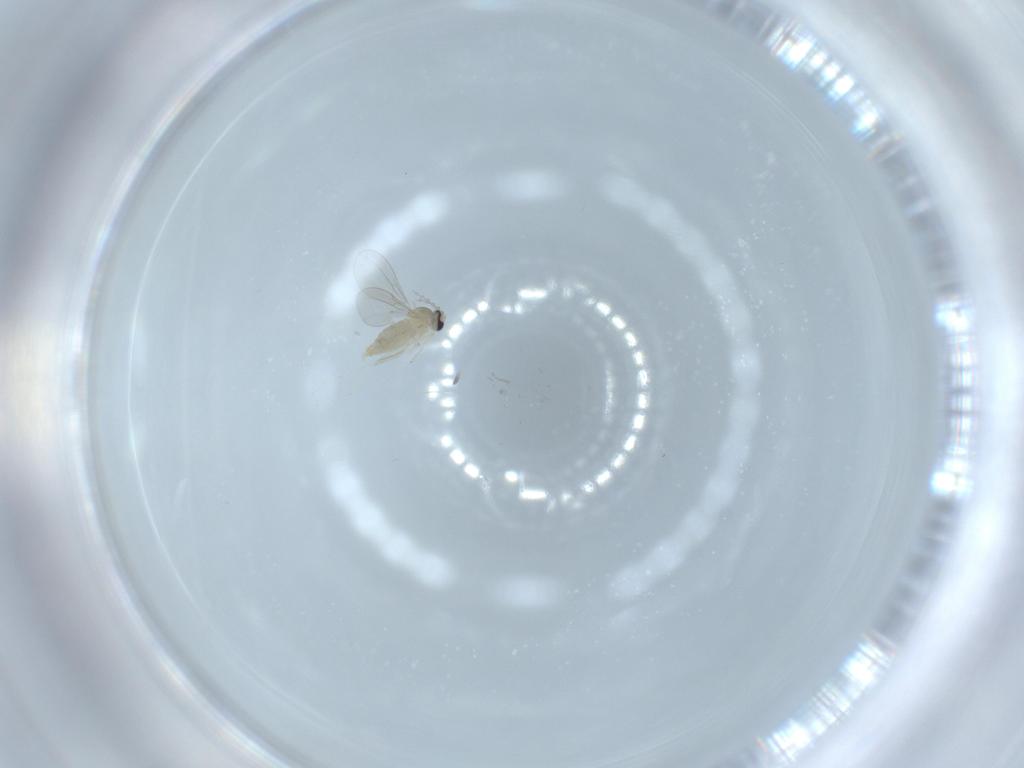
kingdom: Animalia
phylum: Arthropoda
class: Insecta
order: Diptera
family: Cecidomyiidae
